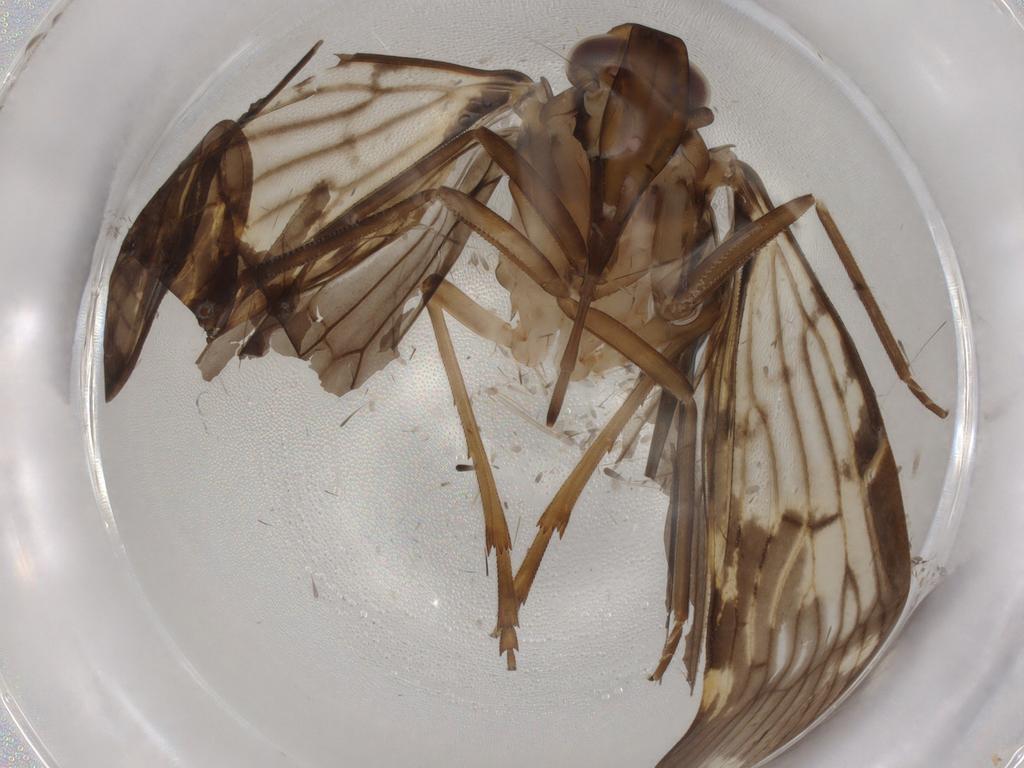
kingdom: Animalia
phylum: Arthropoda
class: Insecta
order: Hemiptera
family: Cixiidae
